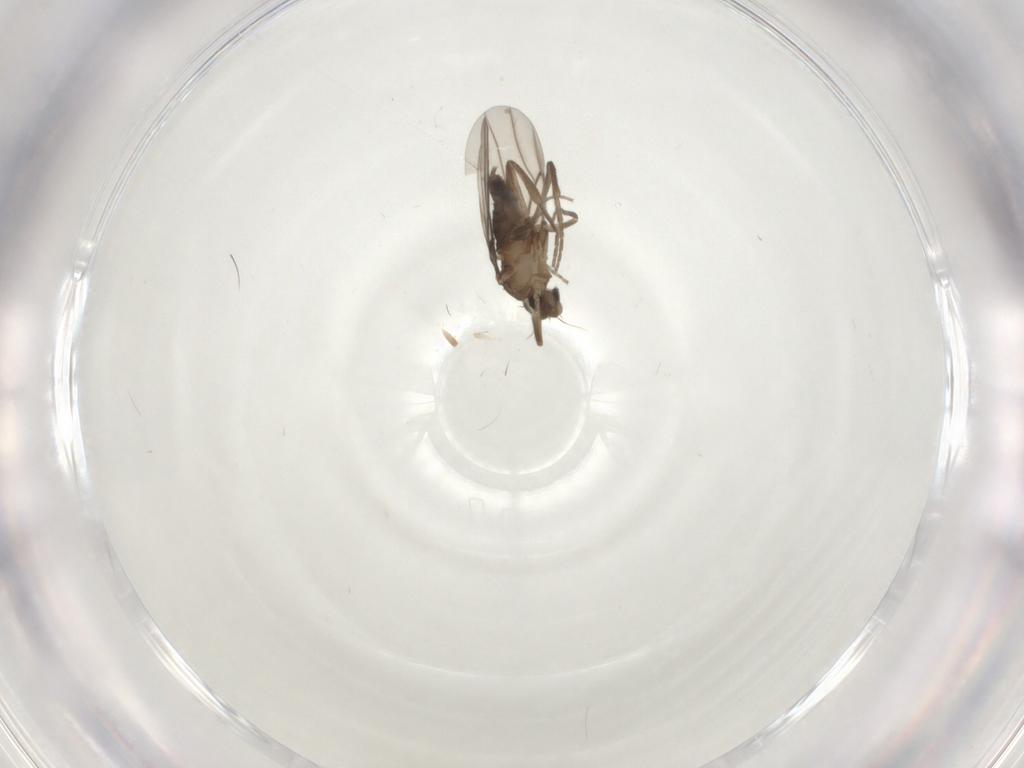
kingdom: Animalia
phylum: Arthropoda
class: Insecta
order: Diptera
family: Phoridae
